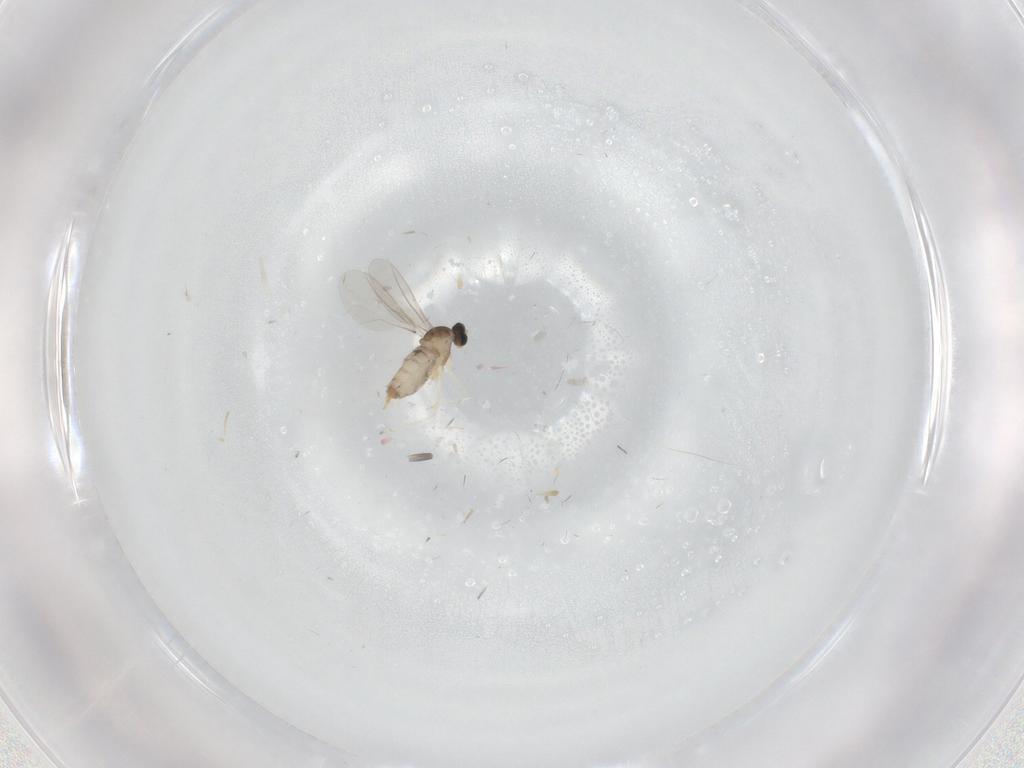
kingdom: Animalia
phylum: Arthropoda
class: Insecta
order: Diptera
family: Cecidomyiidae
